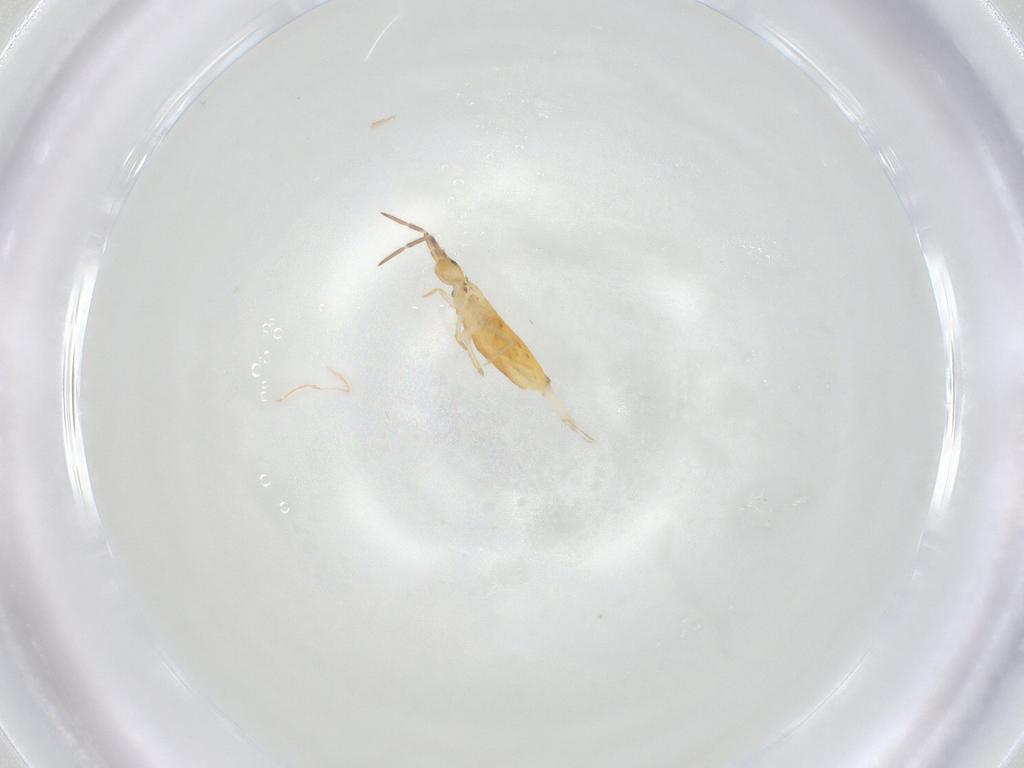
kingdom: Animalia
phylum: Arthropoda
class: Collembola
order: Entomobryomorpha
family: Entomobryidae
